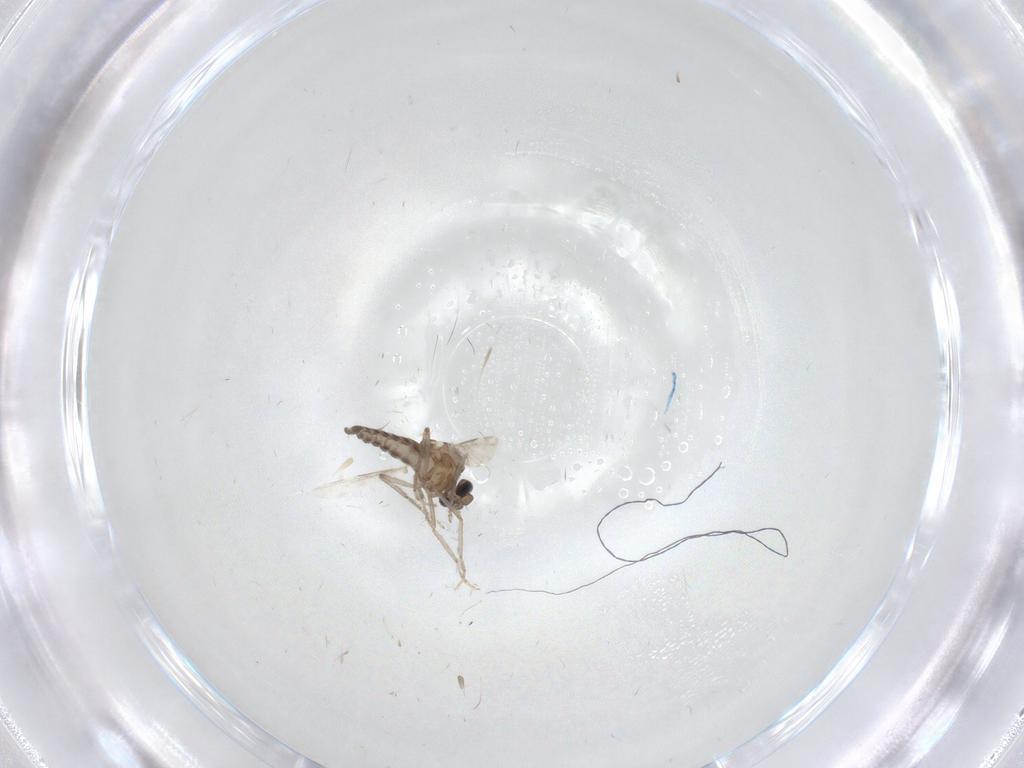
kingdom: Animalia
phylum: Arthropoda
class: Insecta
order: Diptera
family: Ceratopogonidae
